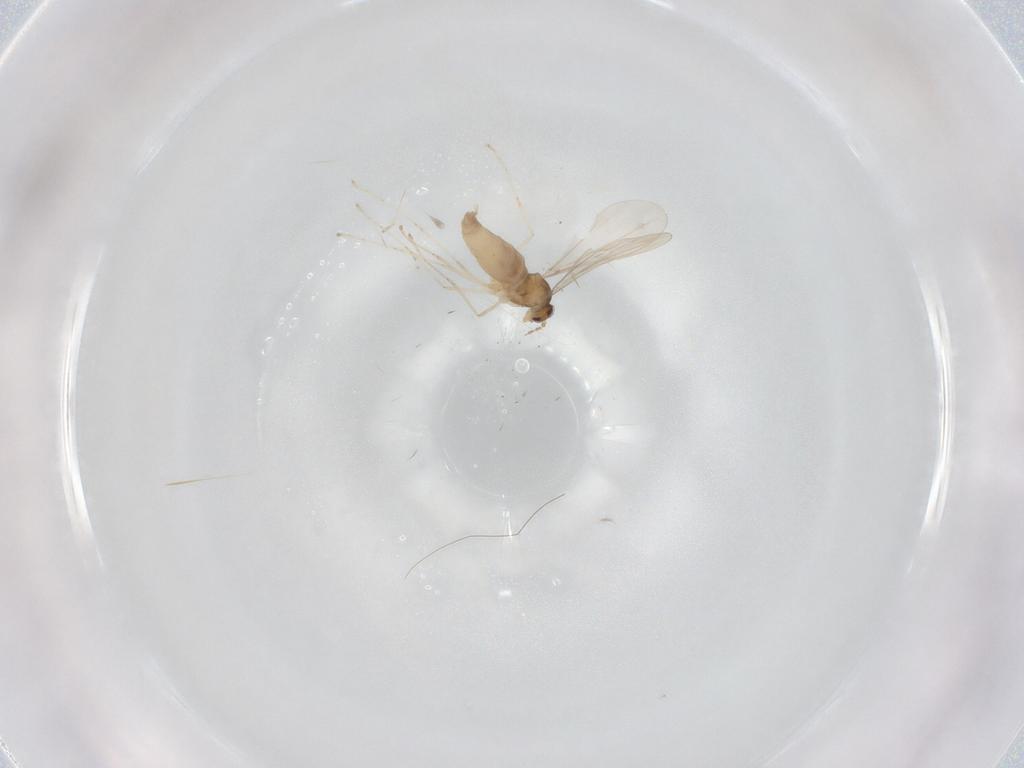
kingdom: Animalia
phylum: Arthropoda
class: Insecta
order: Diptera
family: Cecidomyiidae
